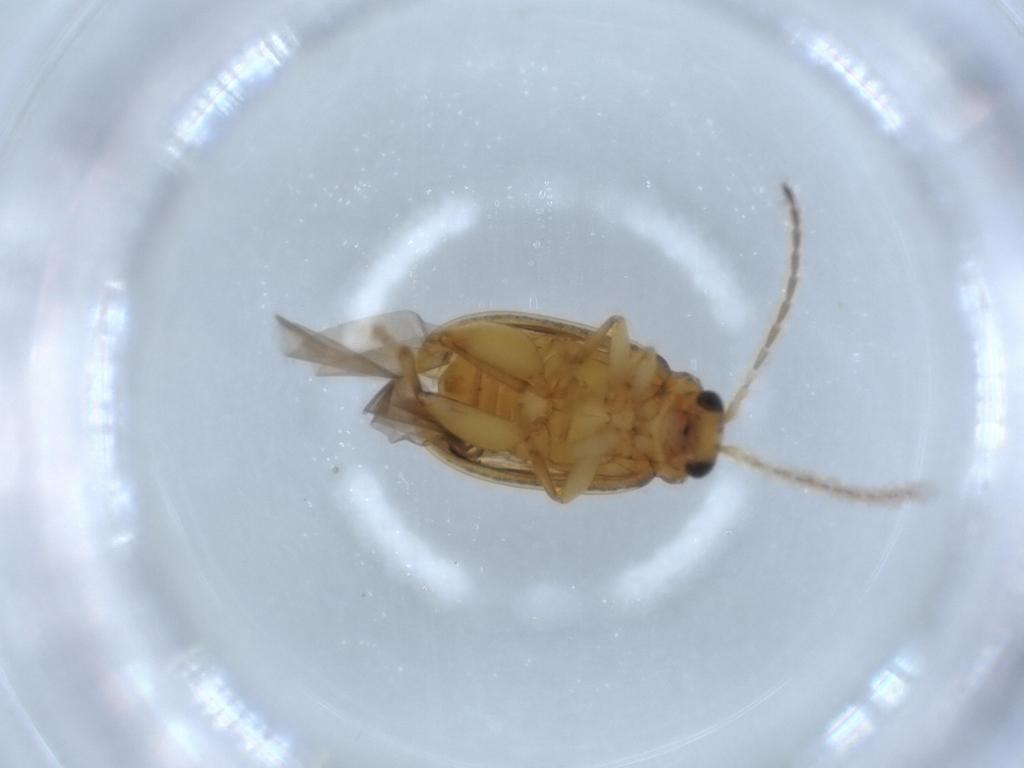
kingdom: Animalia
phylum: Arthropoda
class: Insecta
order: Coleoptera
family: Chrysomelidae
